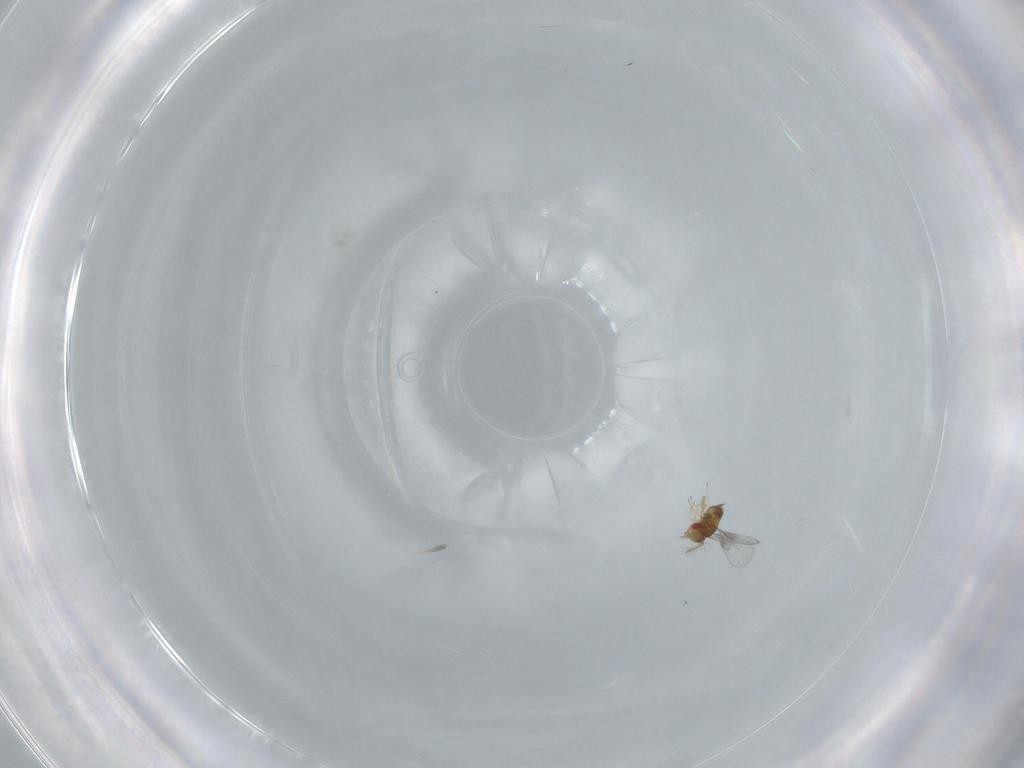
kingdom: Animalia
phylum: Arthropoda
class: Insecta
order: Hymenoptera
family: Trichogrammatidae
